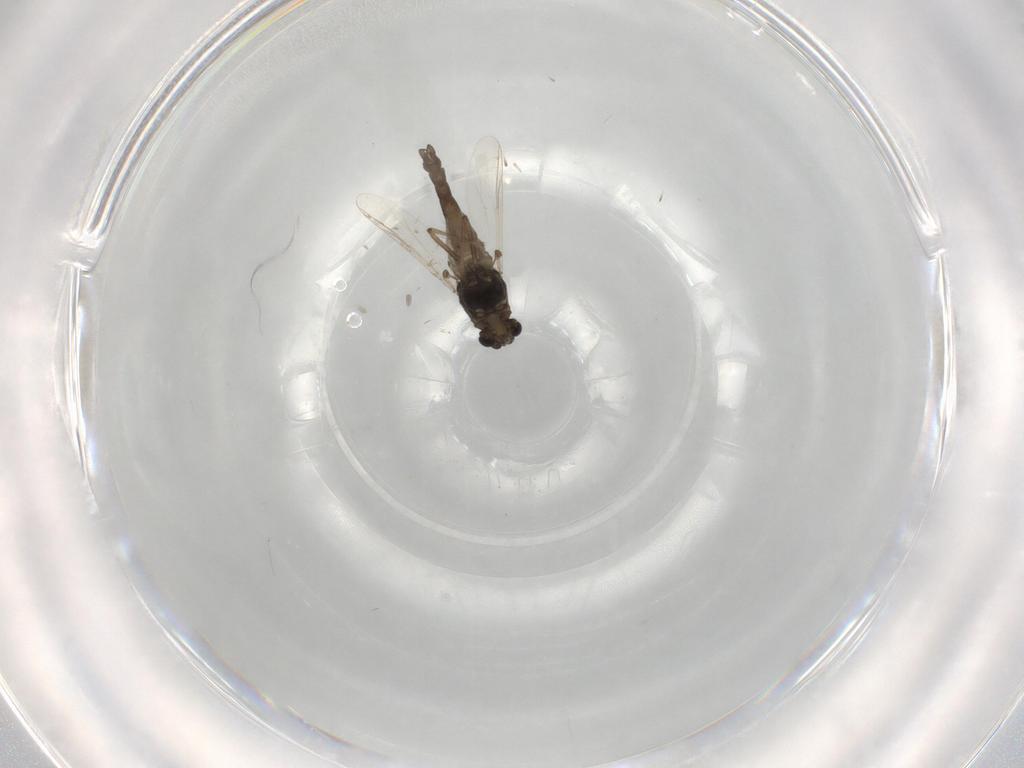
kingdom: Animalia
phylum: Arthropoda
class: Insecta
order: Diptera
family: Chironomidae
